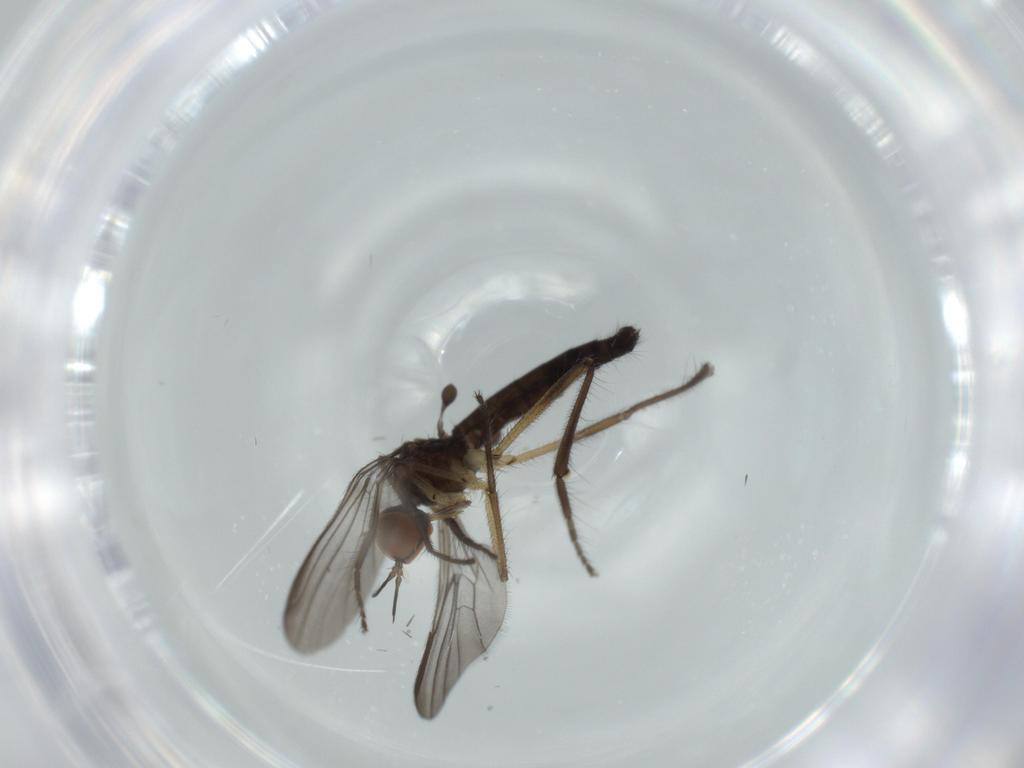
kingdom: Animalia
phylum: Arthropoda
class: Insecta
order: Diptera
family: Empididae
